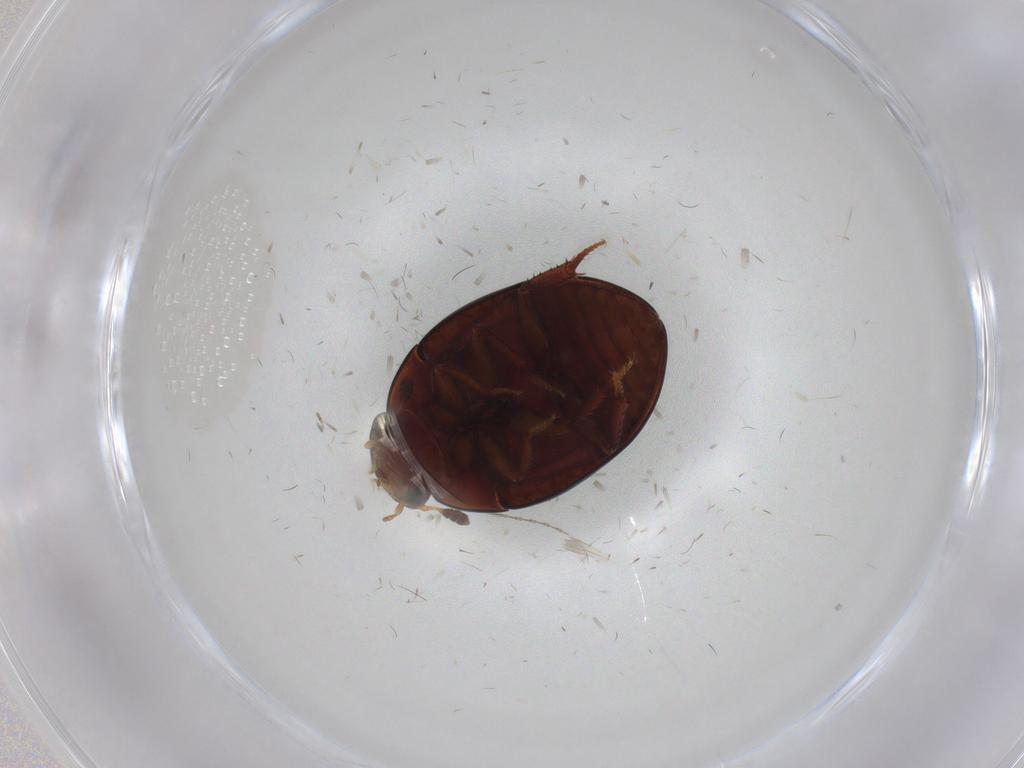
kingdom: Animalia
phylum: Arthropoda
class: Insecta
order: Coleoptera
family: Hydrophilidae
